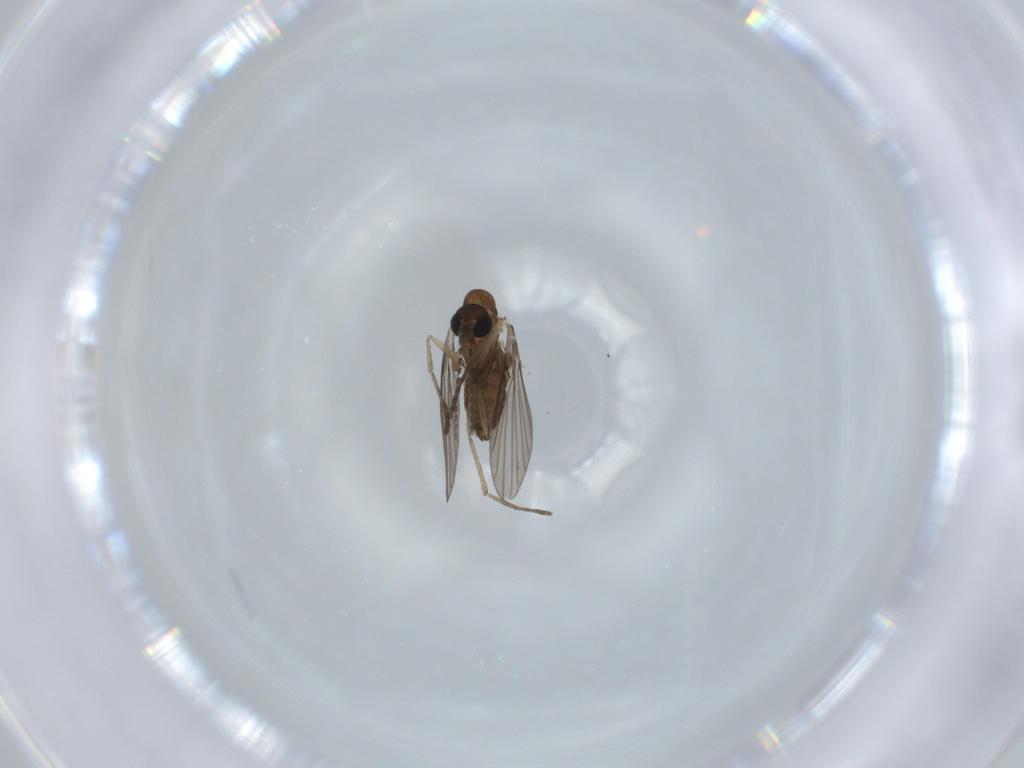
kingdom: Animalia
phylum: Arthropoda
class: Insecta
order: Diptera
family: Psychodidae
